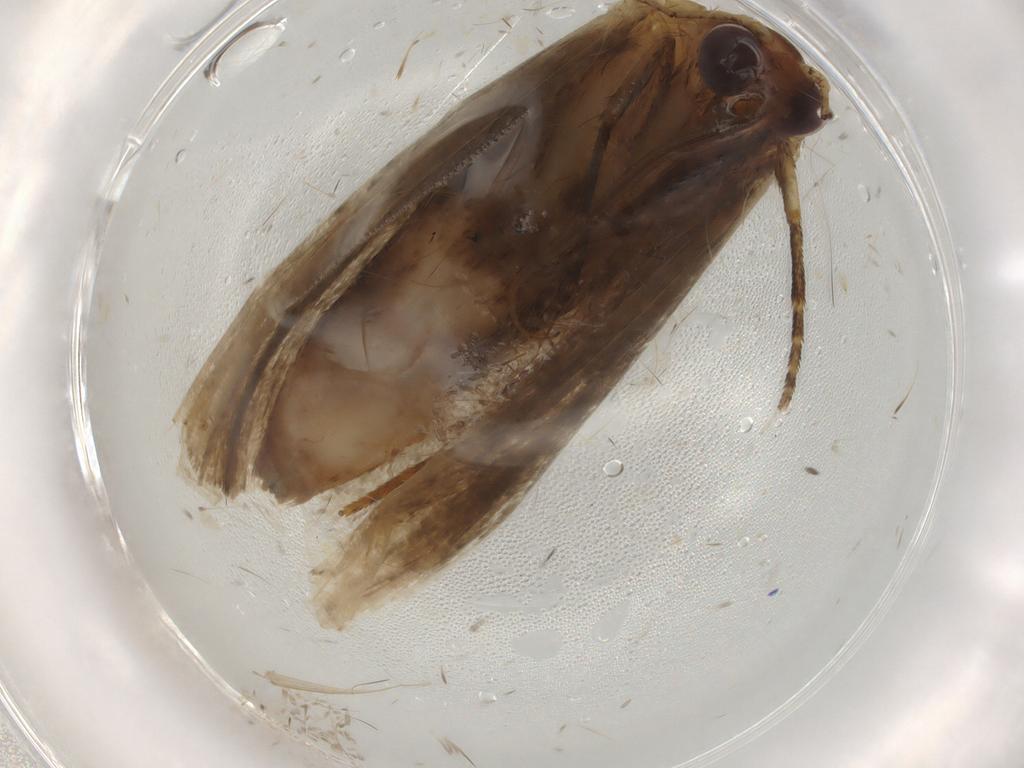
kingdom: Animalia
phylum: Arthropoda
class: Insecta
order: Lepidoptera
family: Erebidae
